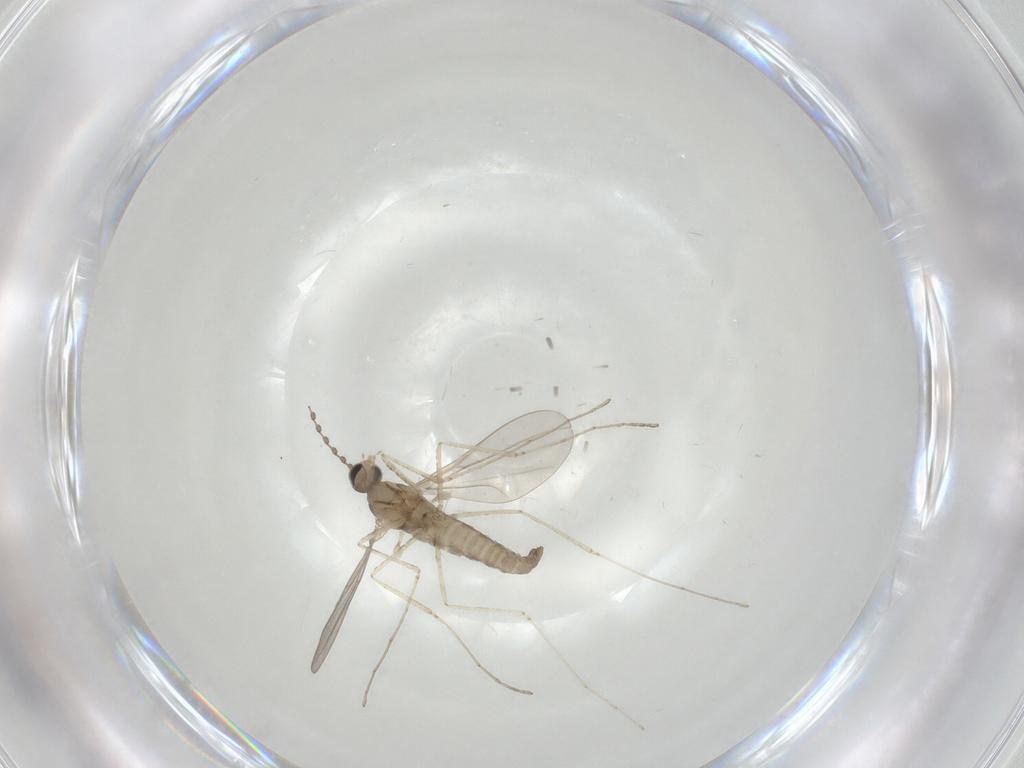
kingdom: Animalia
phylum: Arthropoda
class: Insecta
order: Diptera
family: Cecidomyiidae
